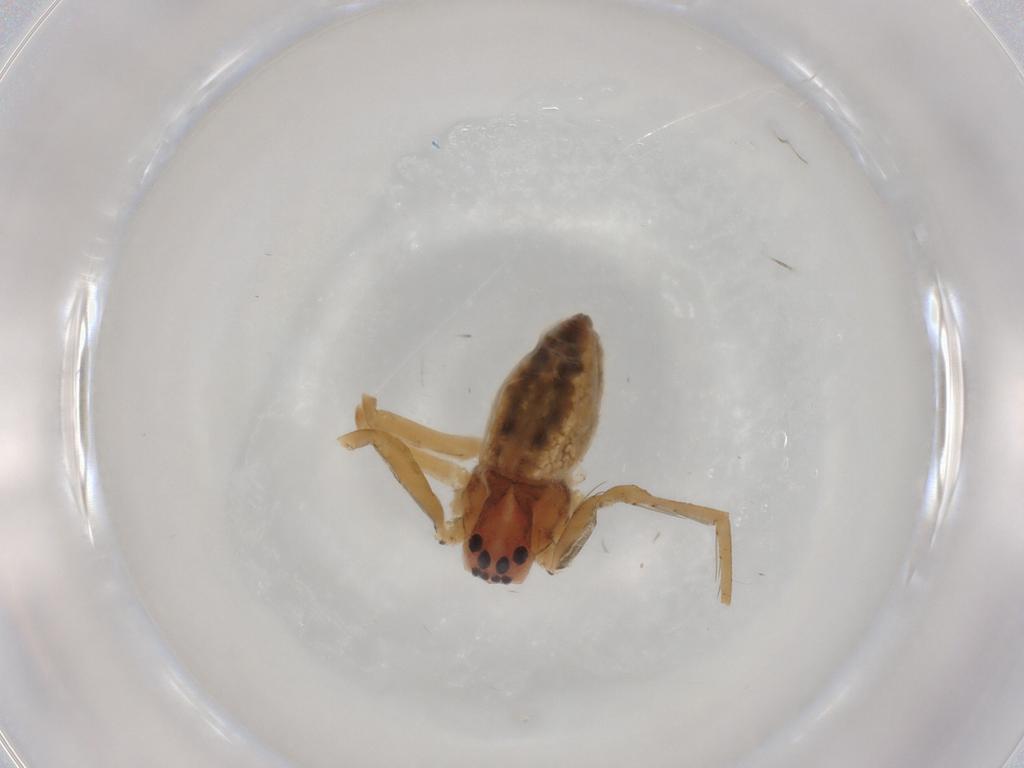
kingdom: Animalia
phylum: Arthropoda
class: Arachnida
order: Araneae
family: Pisauridae
